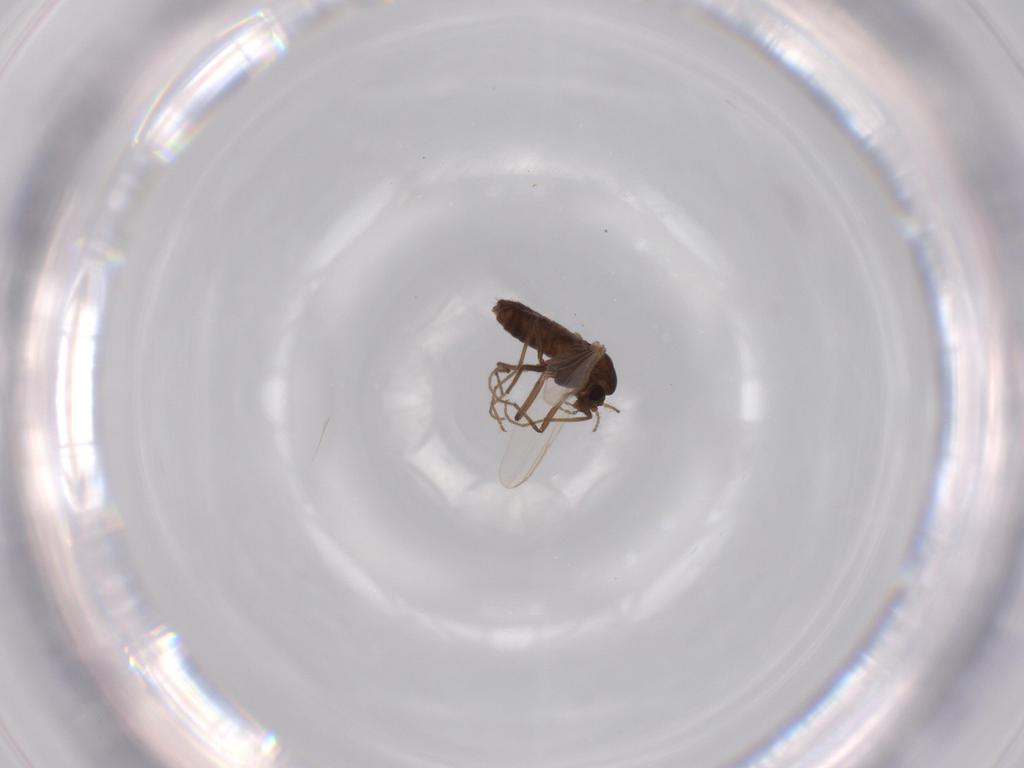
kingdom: Animalia
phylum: Arthropoda
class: Insecta
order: Diptera
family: Chironomidae
